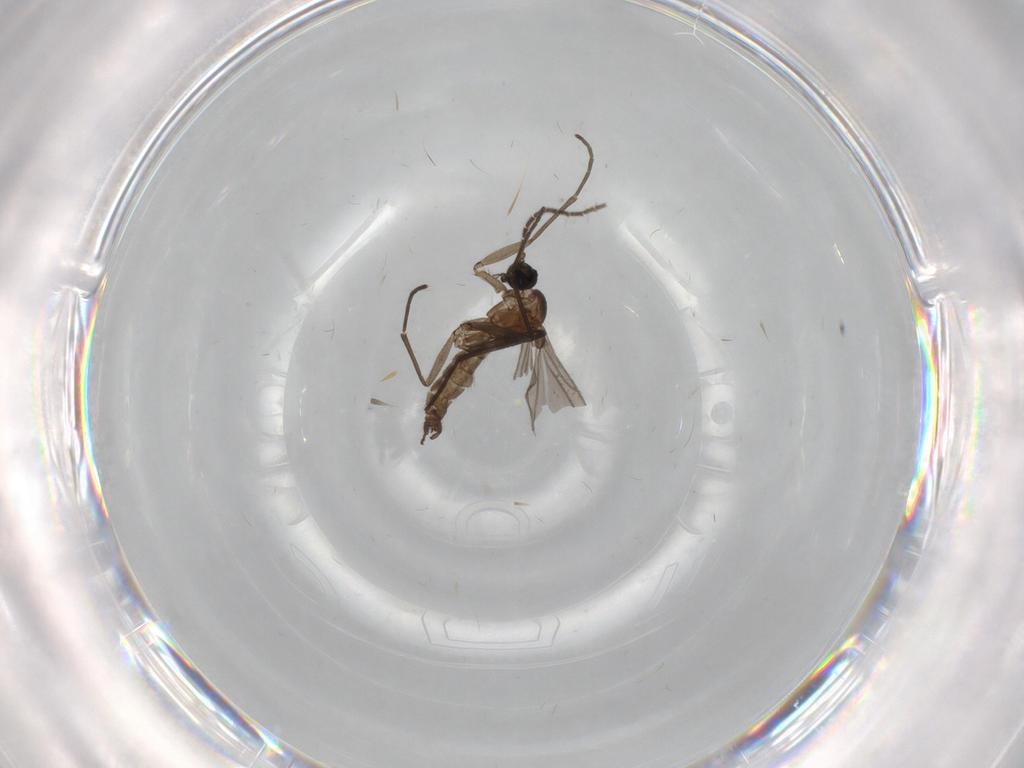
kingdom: Animalia
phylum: Arthropoda
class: Insecta
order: Diptera
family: Sciaridae
